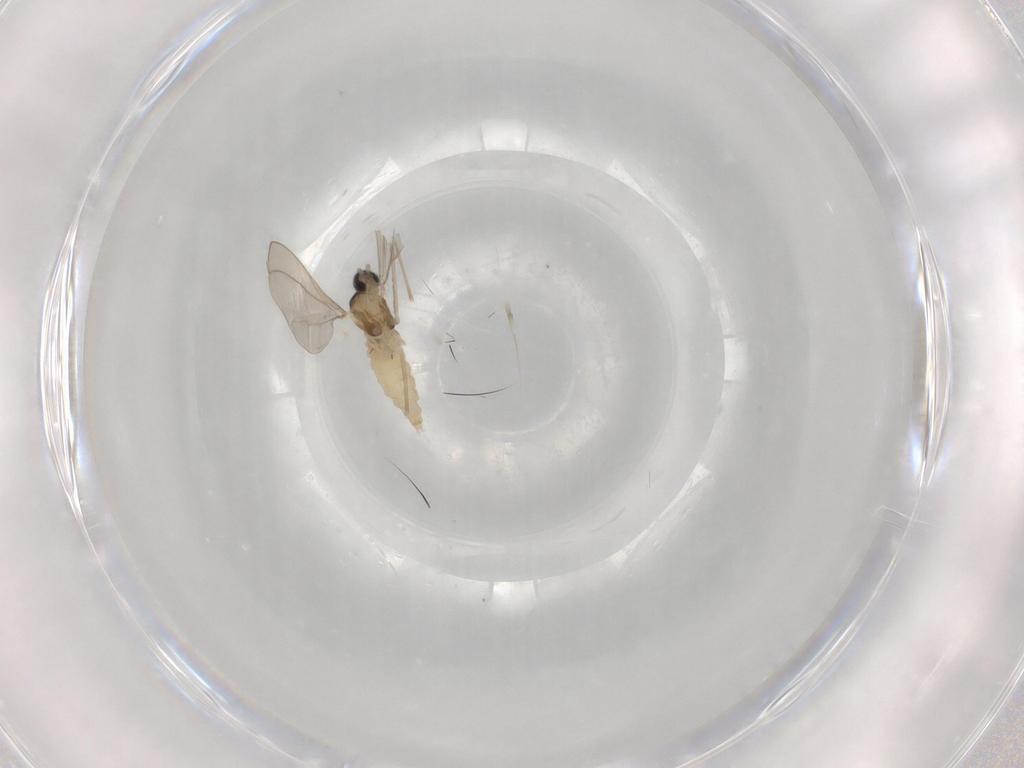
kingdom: Animalia
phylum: Arthropoda
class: Insecta
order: Diptera
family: Cecidomyiidae
